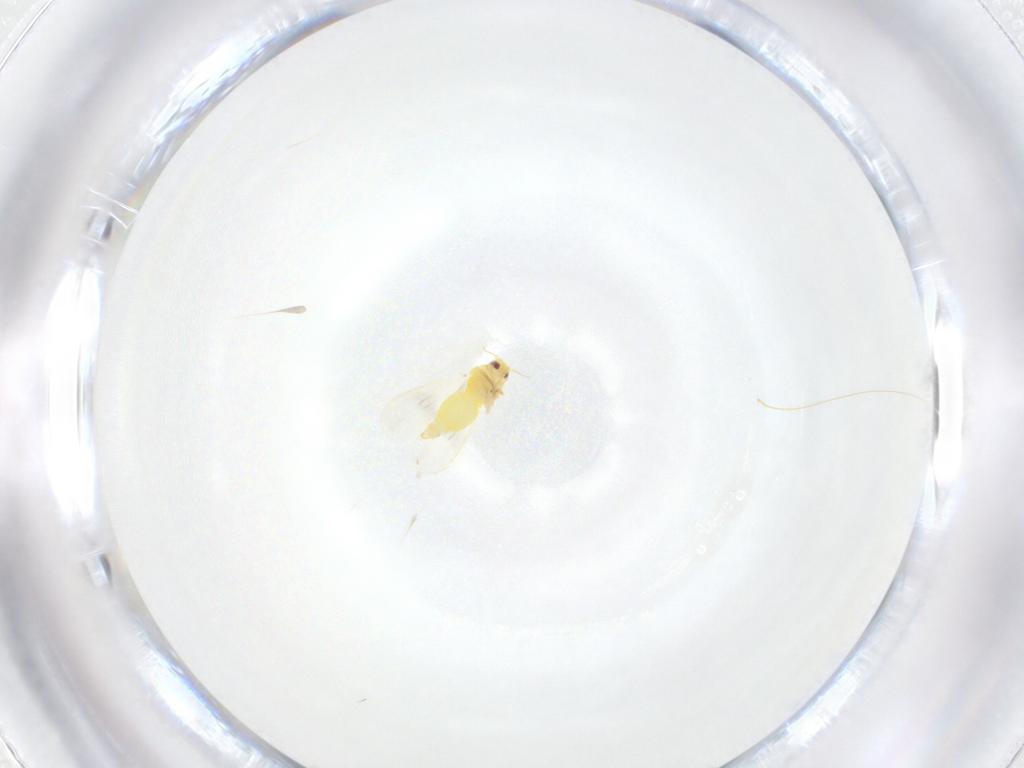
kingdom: Animalia
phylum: Arthropoda
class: Insecta
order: Hemiptera
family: Aleyrodidae
